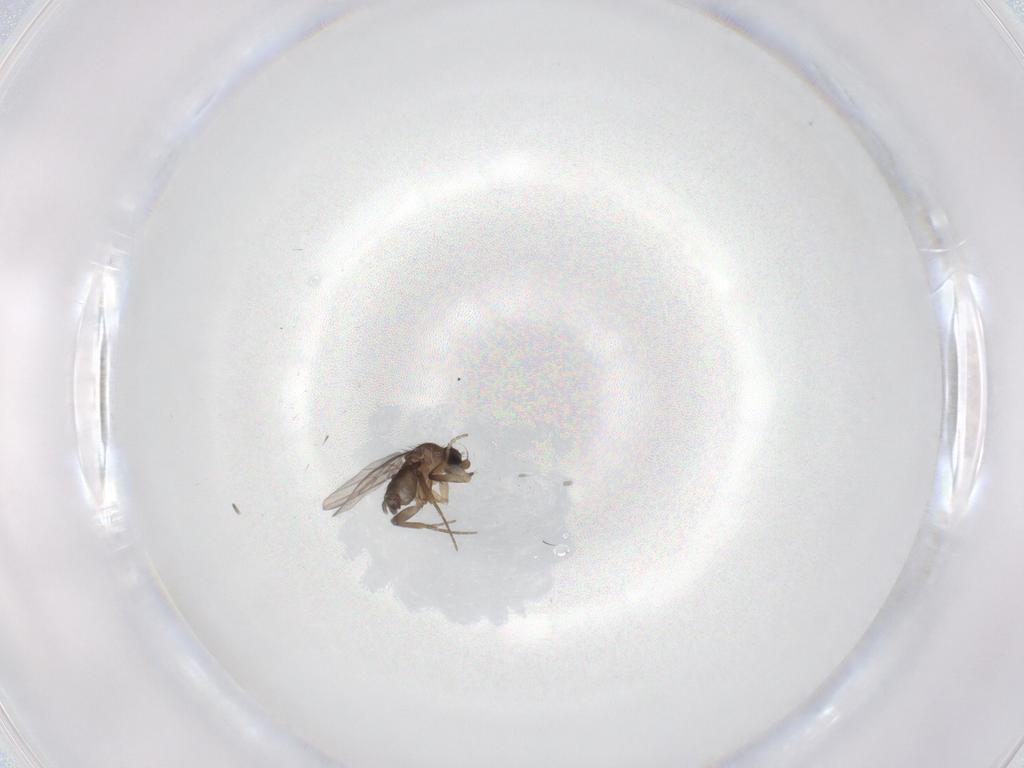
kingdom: Animalia
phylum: Arthropoda
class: Insecta
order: Diptera
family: Phoridae
